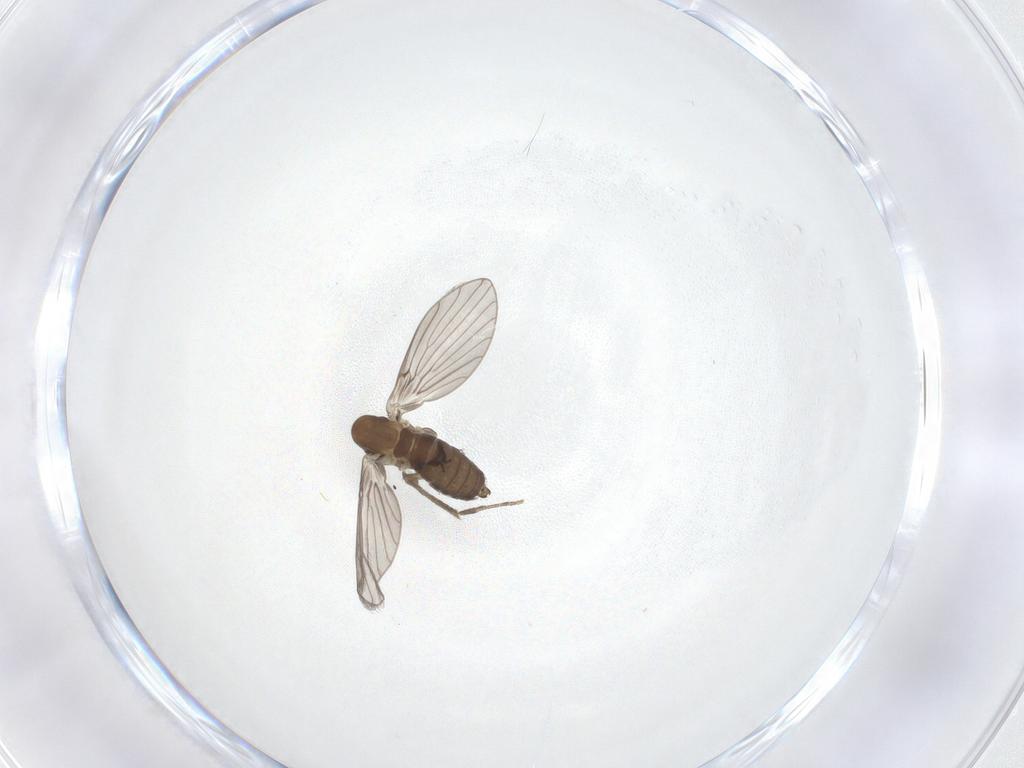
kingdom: Animalia
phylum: Arthropoda
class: Insecta
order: Diptera
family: Psychodidae
